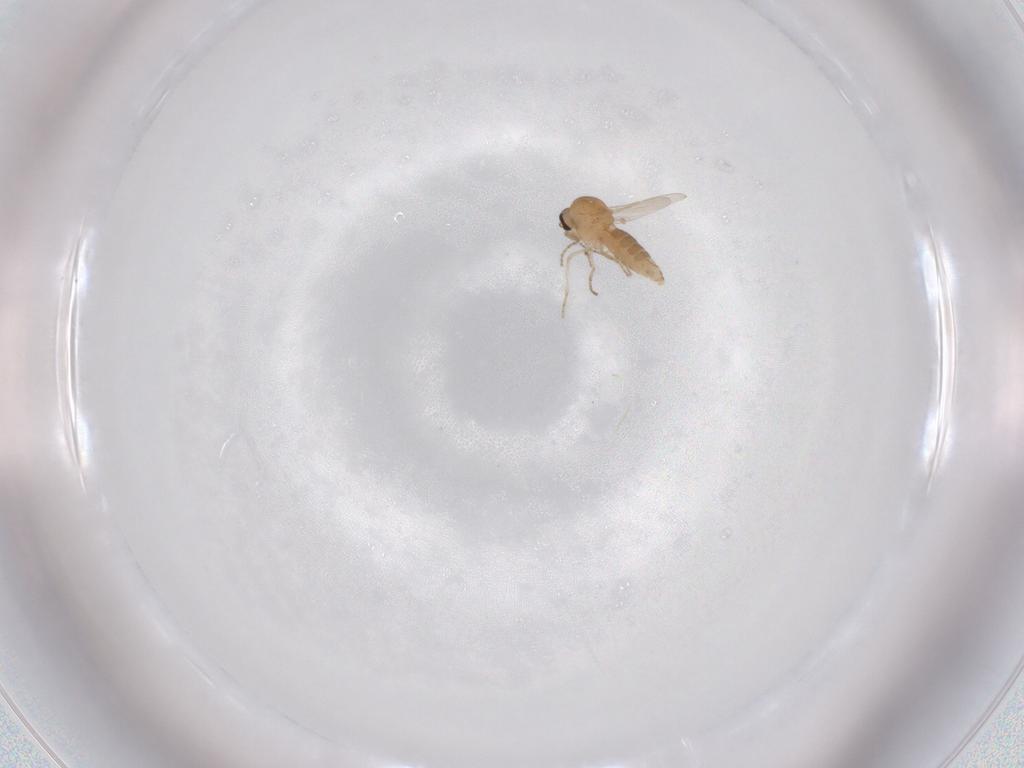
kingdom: Animalia
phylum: Arthropoda
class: Insecta
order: Diptera
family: Ceratopogonidae
